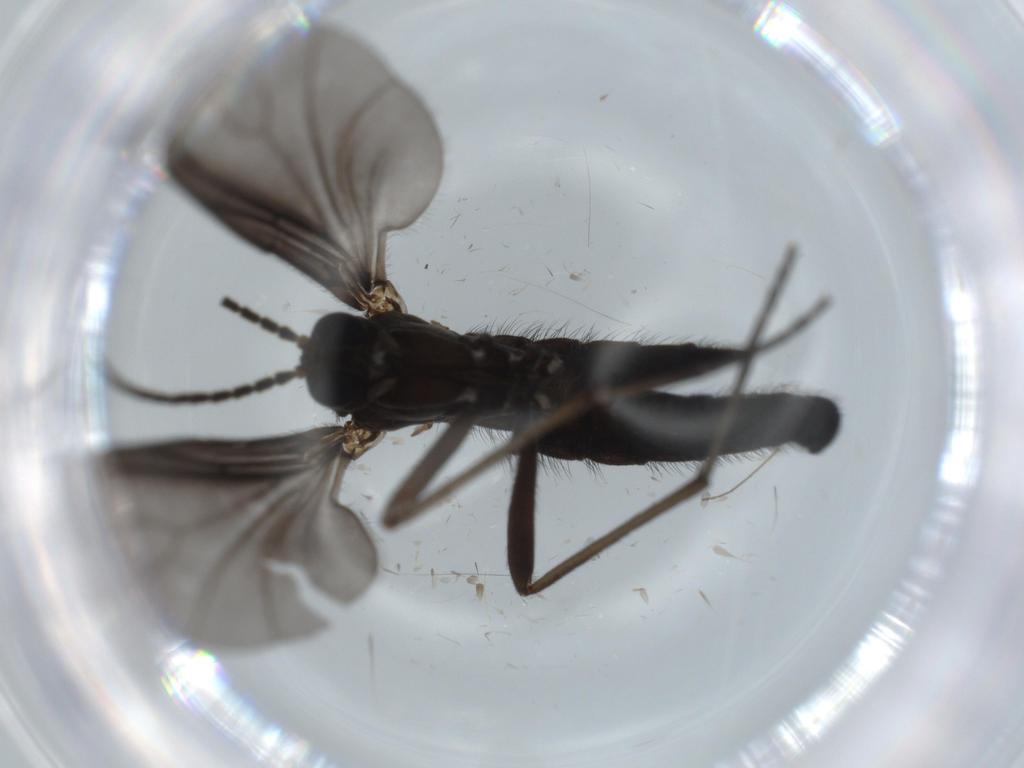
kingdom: Animalia
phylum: Arthropoda
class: Insecta
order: Diptera
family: Sciaridae
